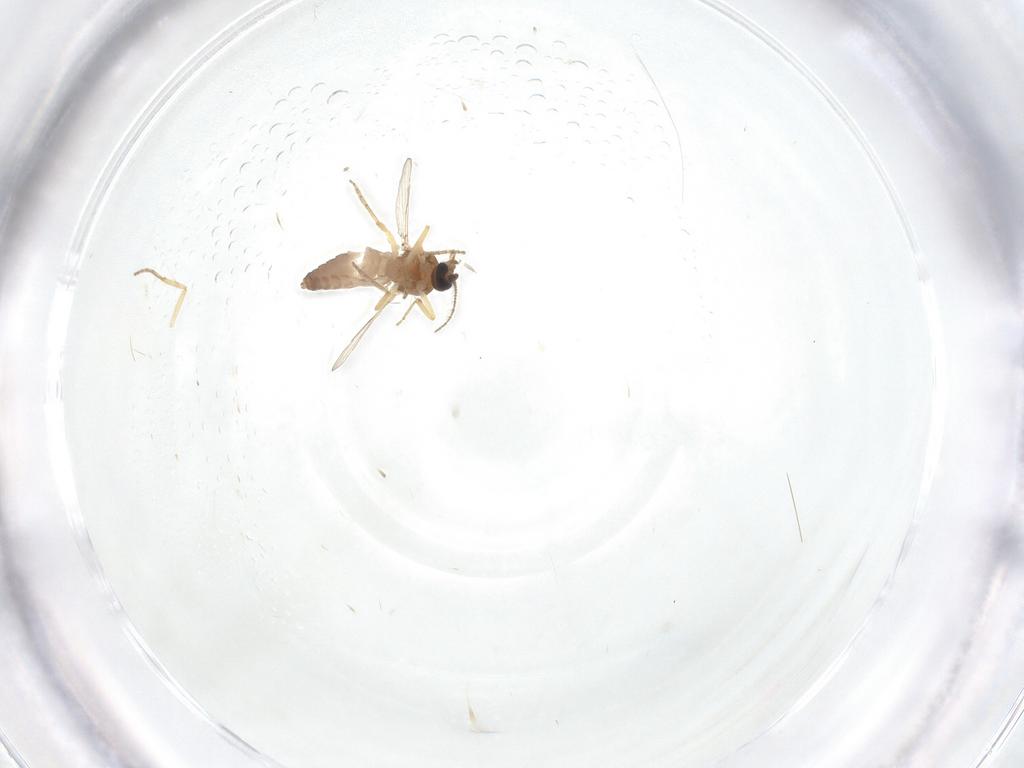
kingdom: Animalia
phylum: Arthropoda
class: Insecta
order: Diptera
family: Ceratopogonidae
